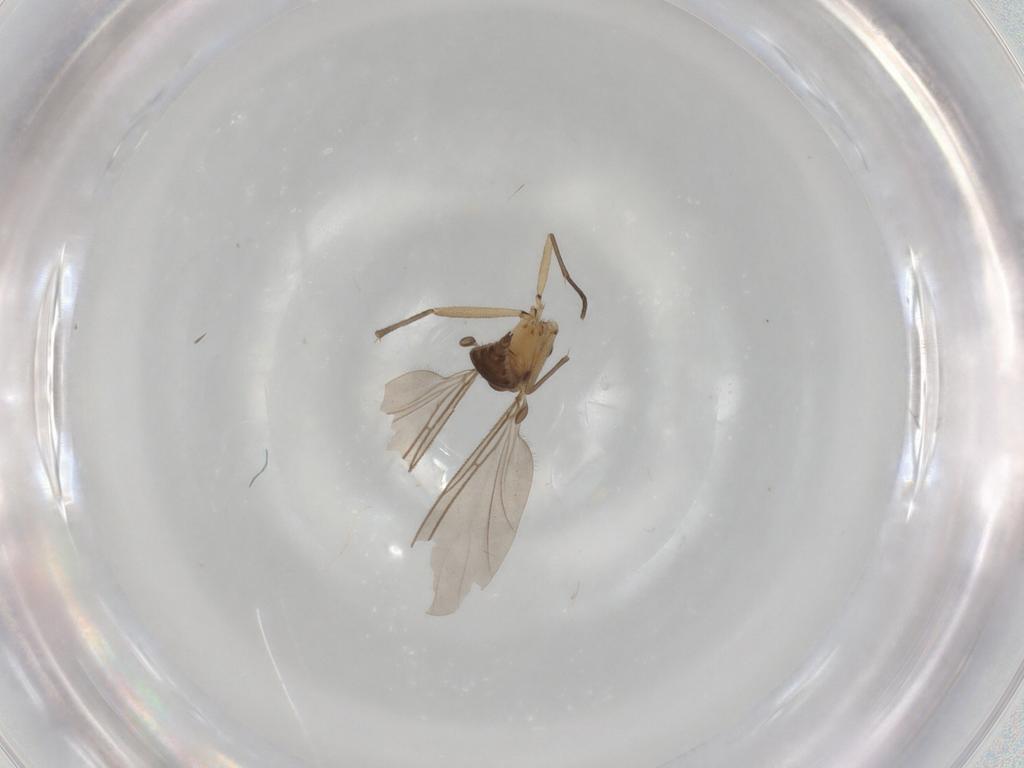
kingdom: Animalia
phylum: Arthropoda
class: Insecta
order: Diptera
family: Sciaridae
